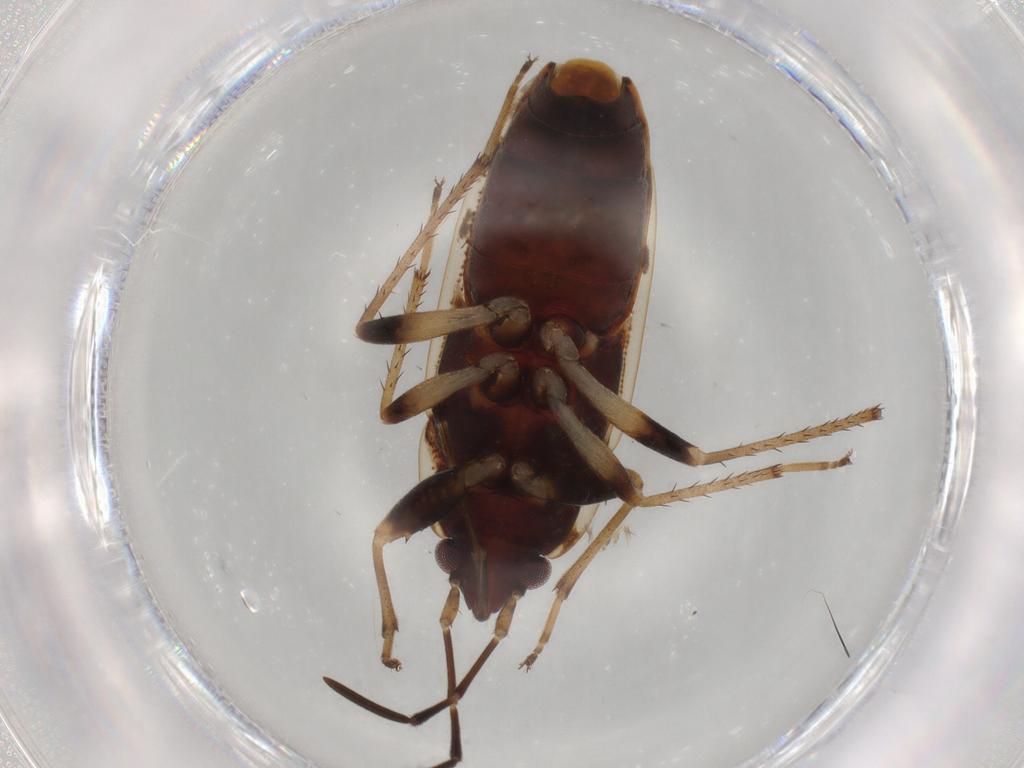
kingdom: Animalia
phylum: Arthropoda
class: Insecta
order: Hemiptera
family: Rhyparochromidae
